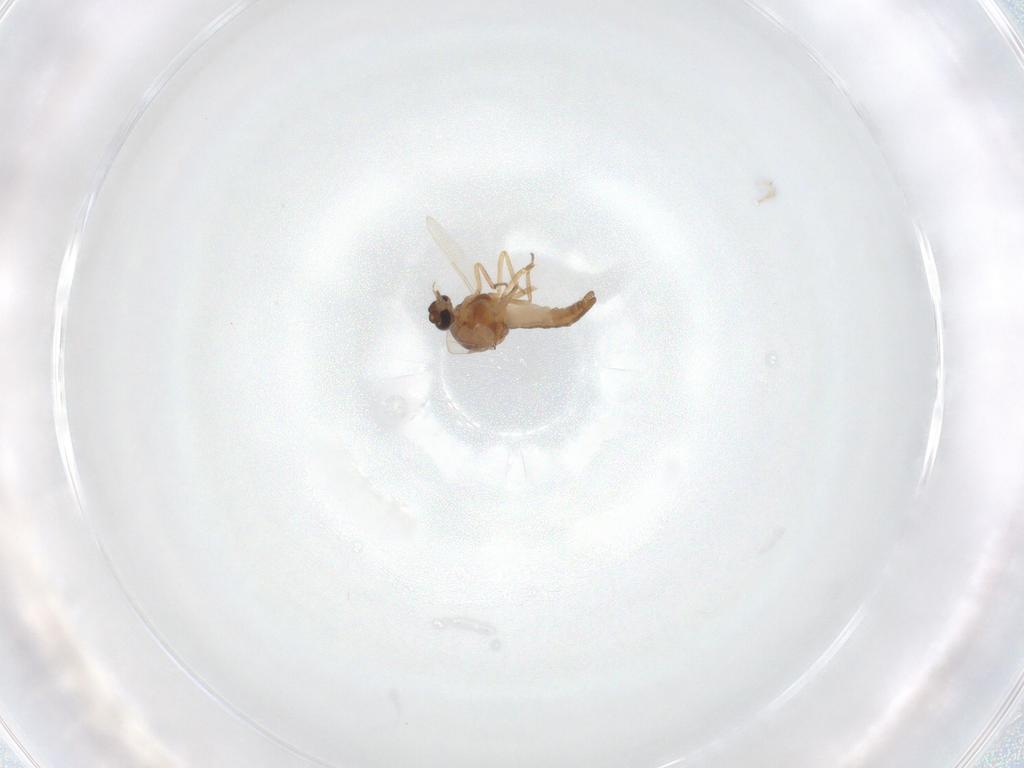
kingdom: Animalia
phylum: Arthropoda
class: Insecta
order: Diptera
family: Ceratopogonidae
